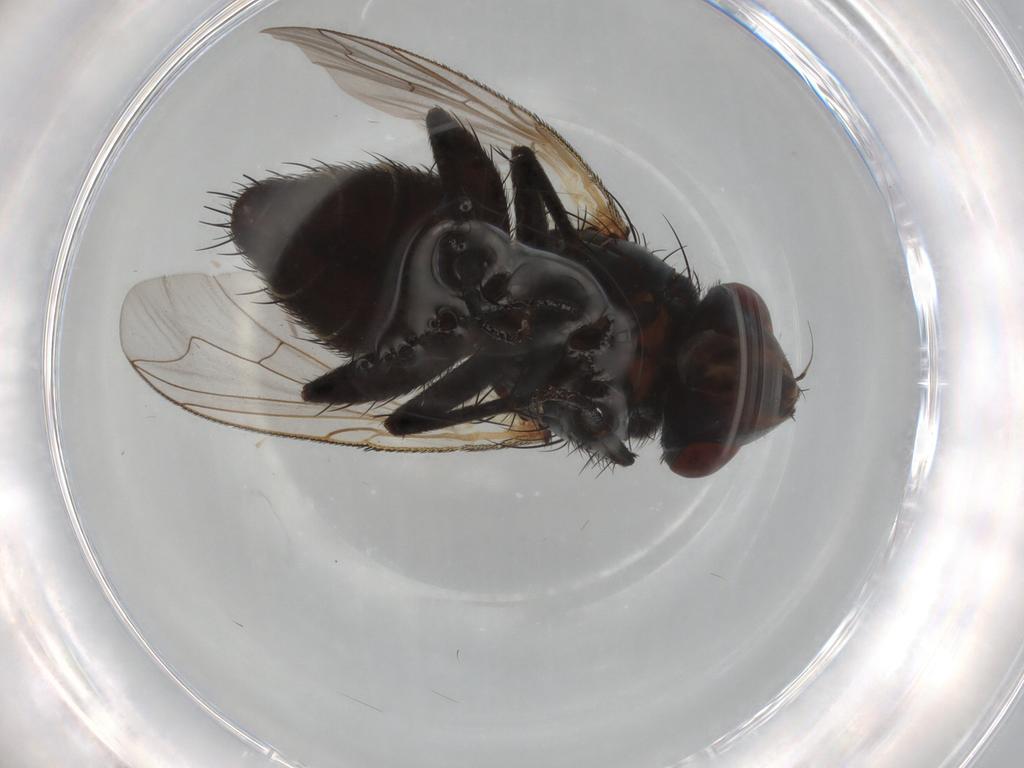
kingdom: Animalia
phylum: Arthropoda
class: Insecta
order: Diptera
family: Sarcophagidae
